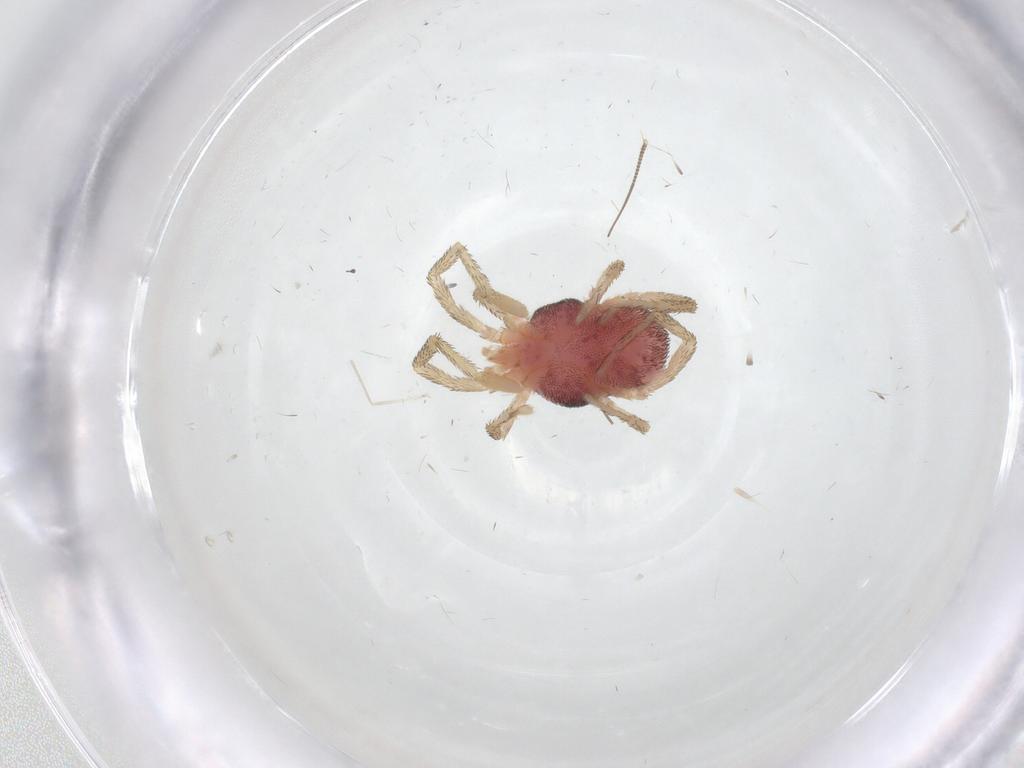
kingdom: Animalia
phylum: Arthropoda
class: Arachnida
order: Trombidiformes
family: Erythraeidae
